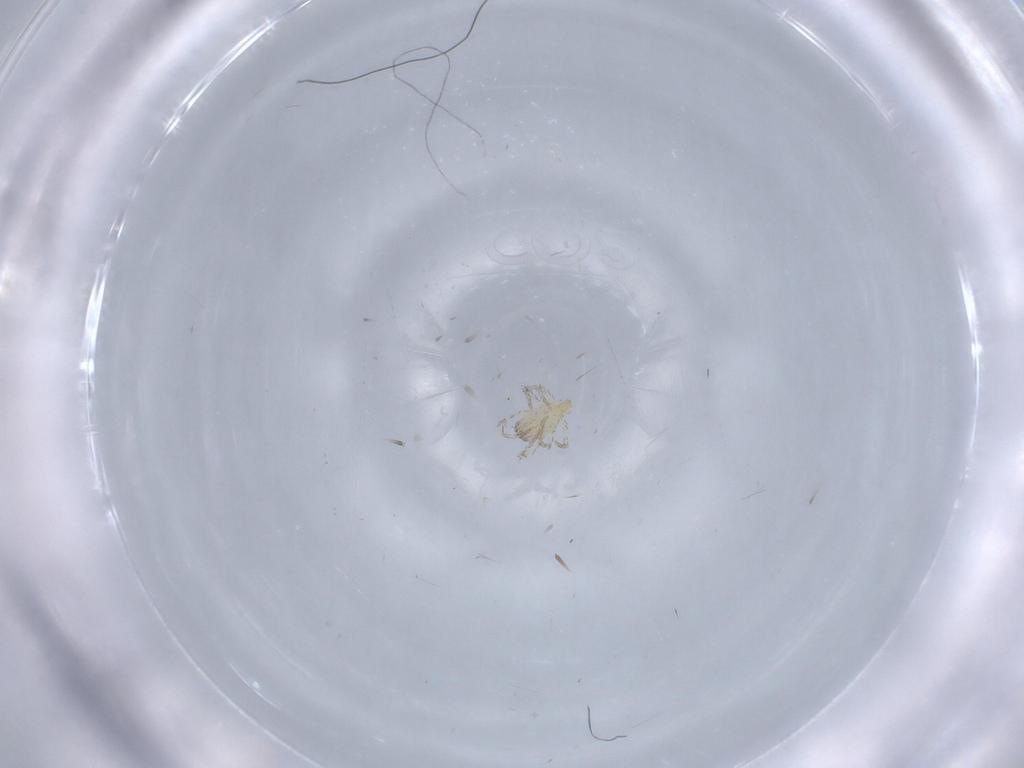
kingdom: Animalia
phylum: Arthropoda
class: Arachnida
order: Trombidiformes
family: Erythraeidae
